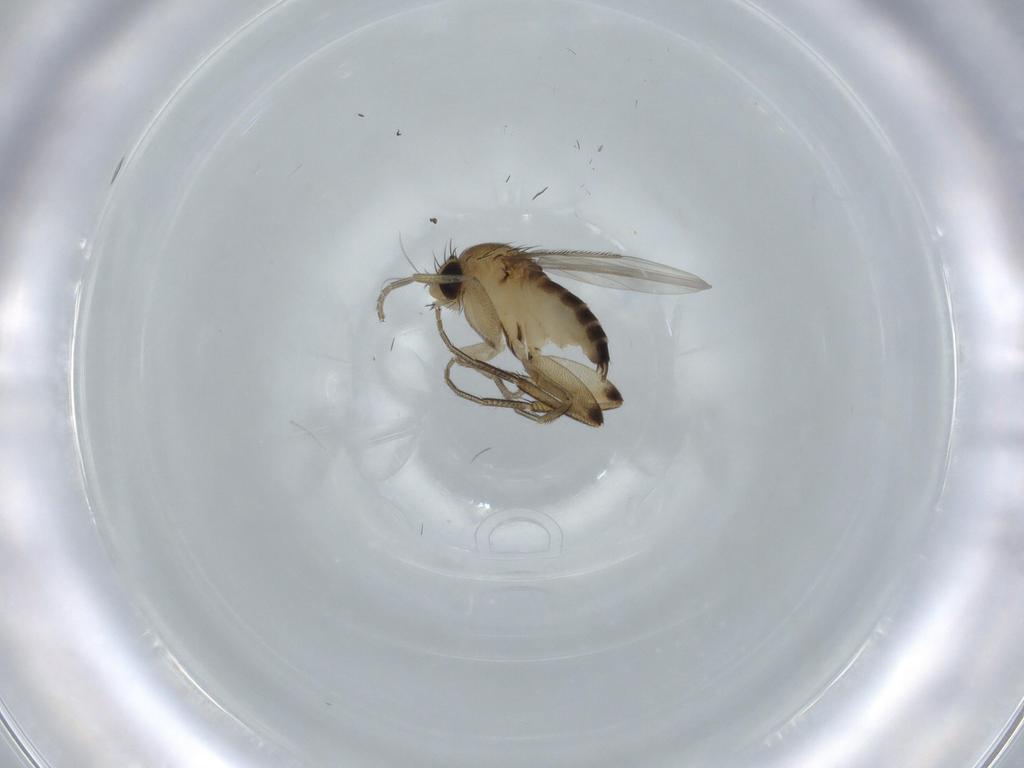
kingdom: Animalia
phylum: Arthropoda
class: Insecta
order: Diptera
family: Phoridae
